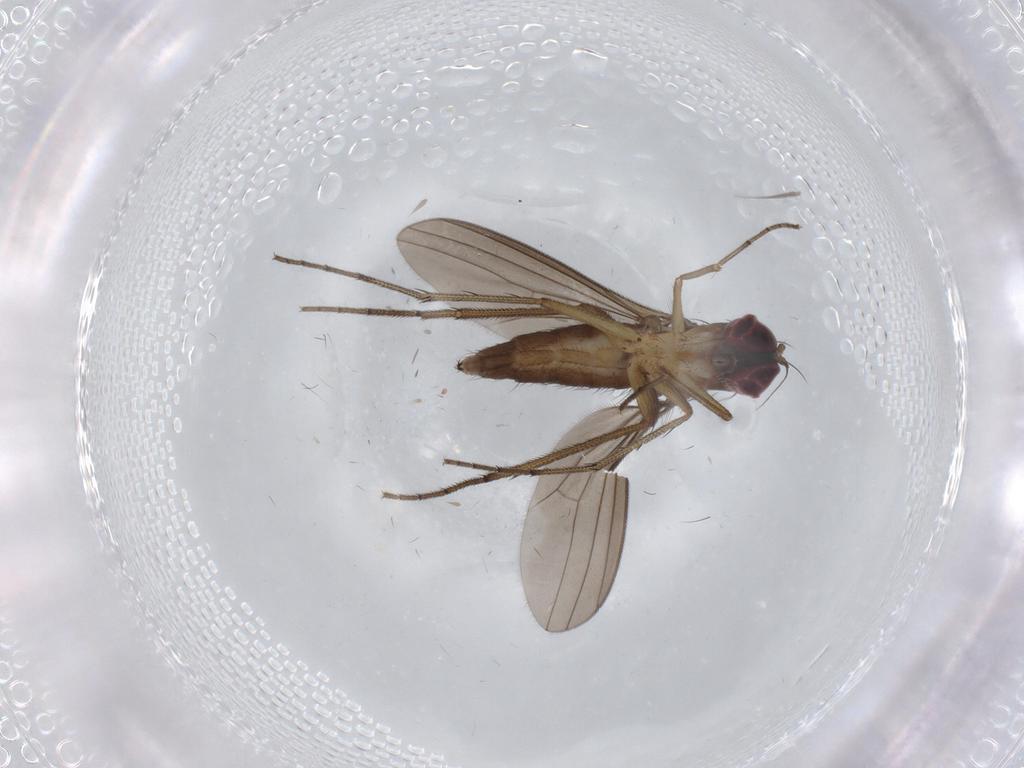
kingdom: Animalia
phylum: Arthropoda
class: Insecta
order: Diptera
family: Dolichopodidae
